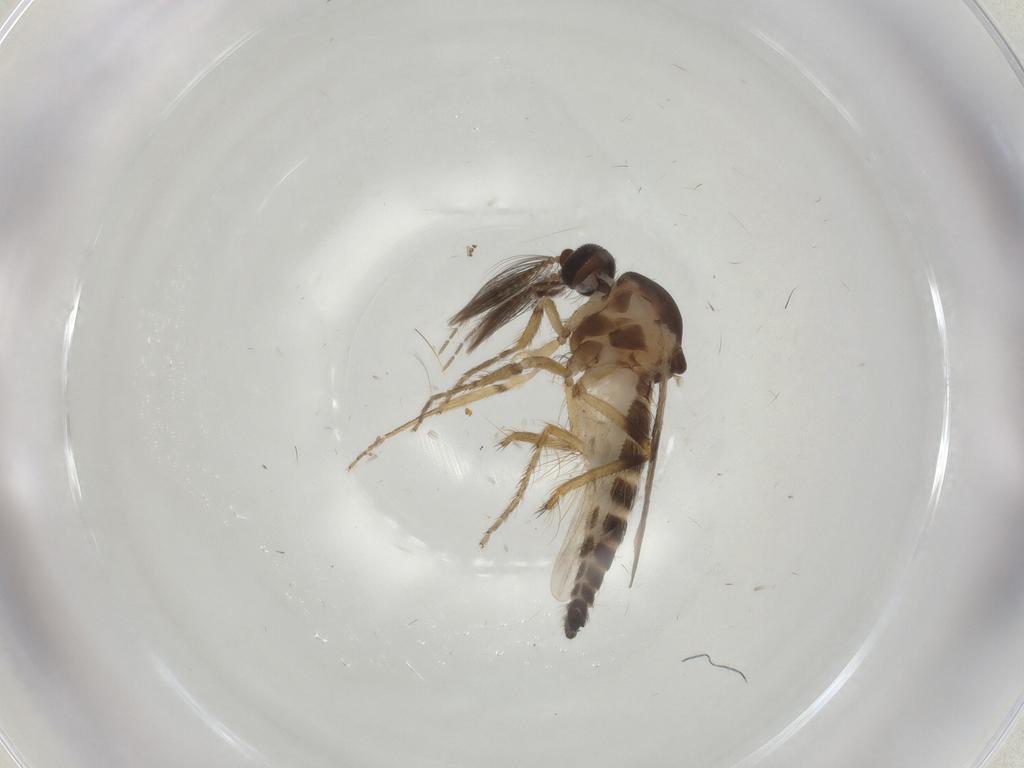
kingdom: Animalia
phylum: Arthropoda
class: Insecta
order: Diptera
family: Ceratopogonidae
